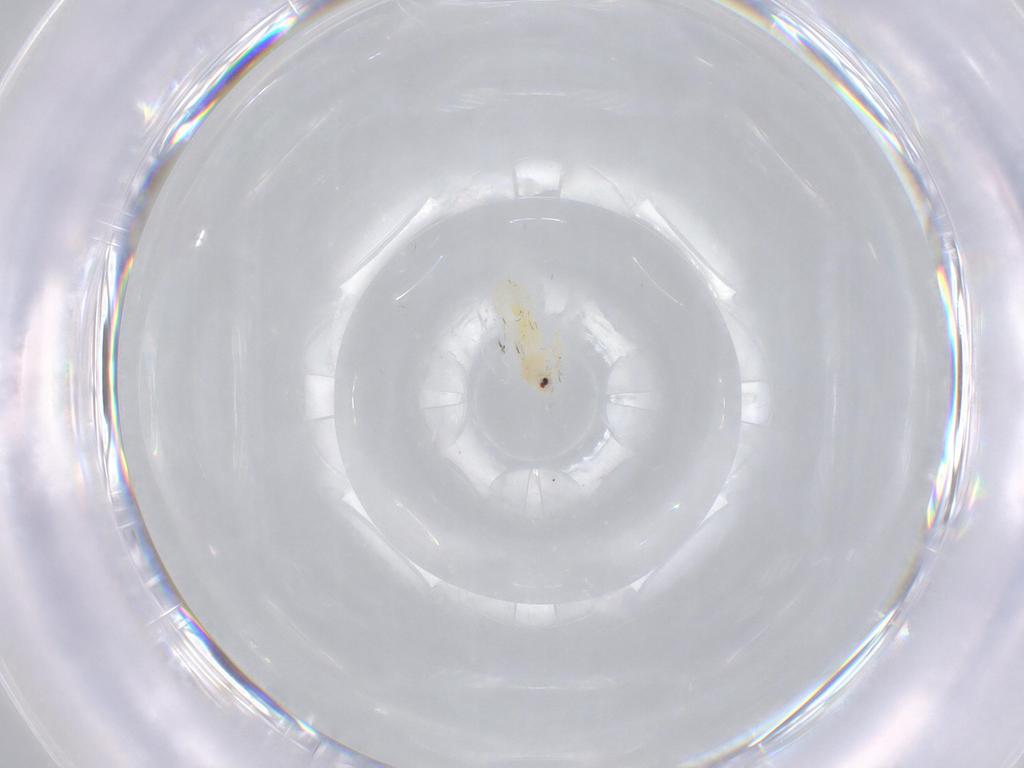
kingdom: Animalia
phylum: Arthropoda
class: Insecta
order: Hemiptera
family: Aleyrodidae
